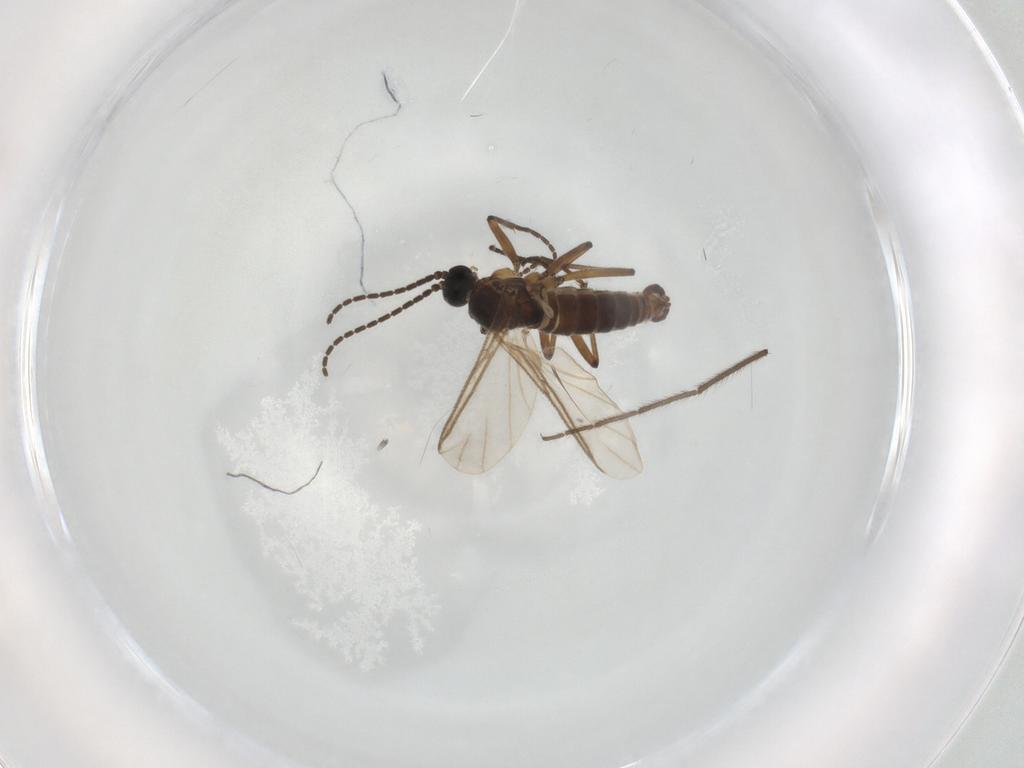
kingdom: Animalia
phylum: Arthropoda
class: Insecta
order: Diptera
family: Sciaridae
